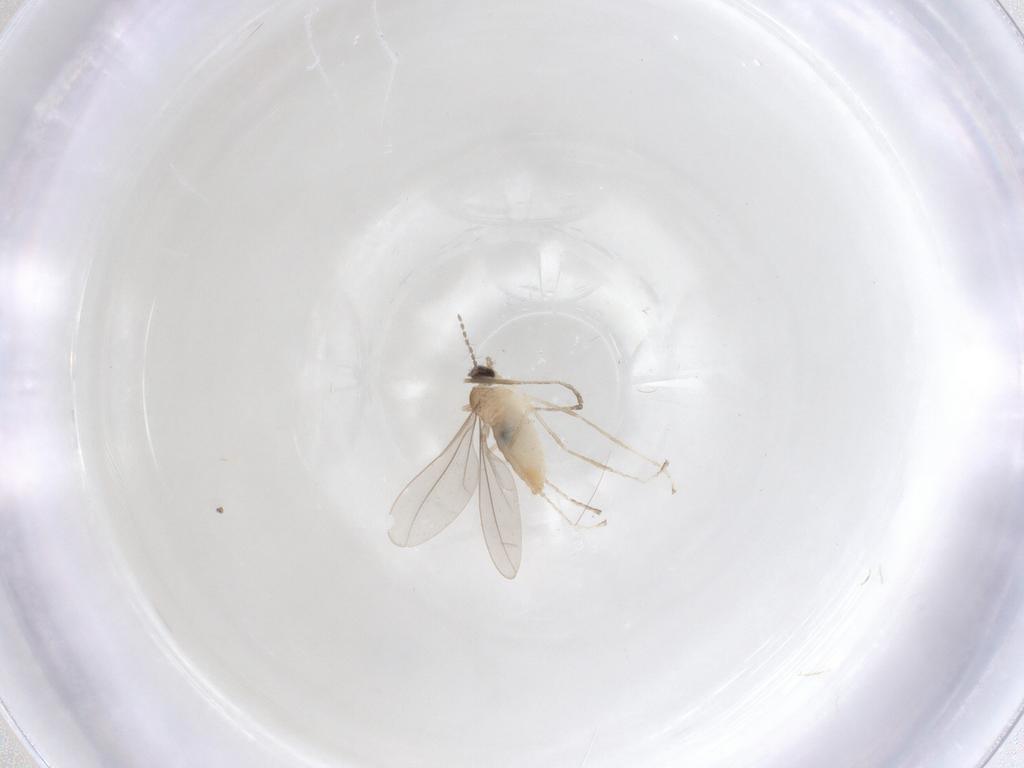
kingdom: Animalia
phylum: Arthropoda
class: Insecta
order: Diptera
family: Cecidomyiidae
